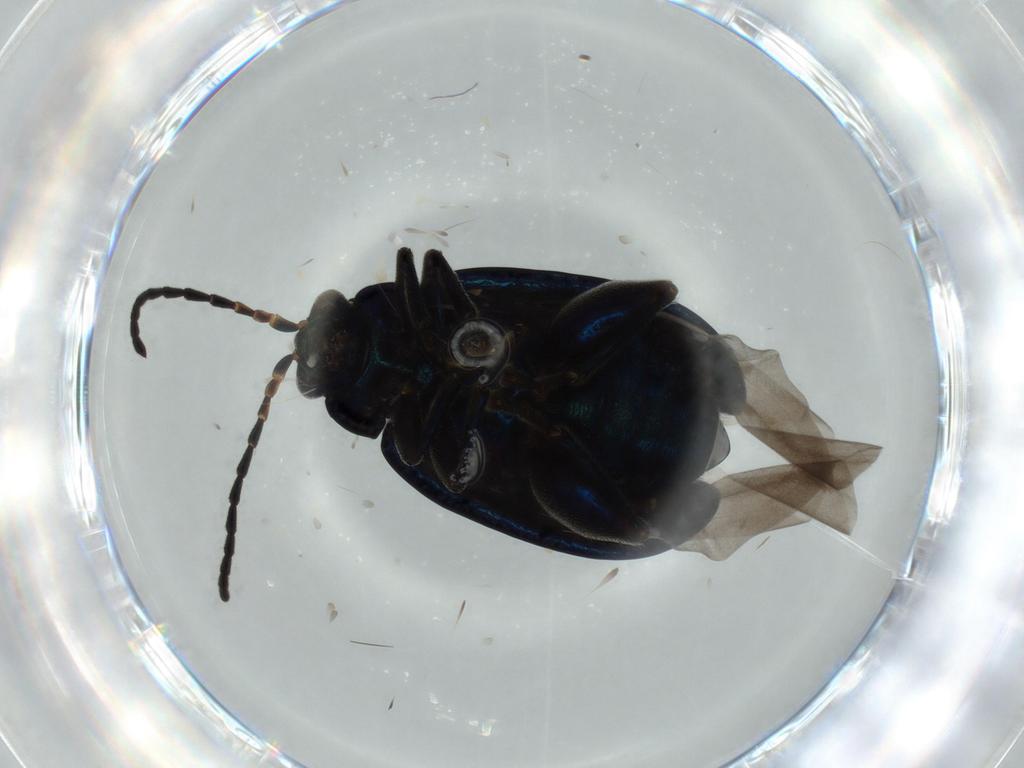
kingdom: Animalia
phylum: Arthropoda
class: Insecta
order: Coleoptera
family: Chrysomelidae
